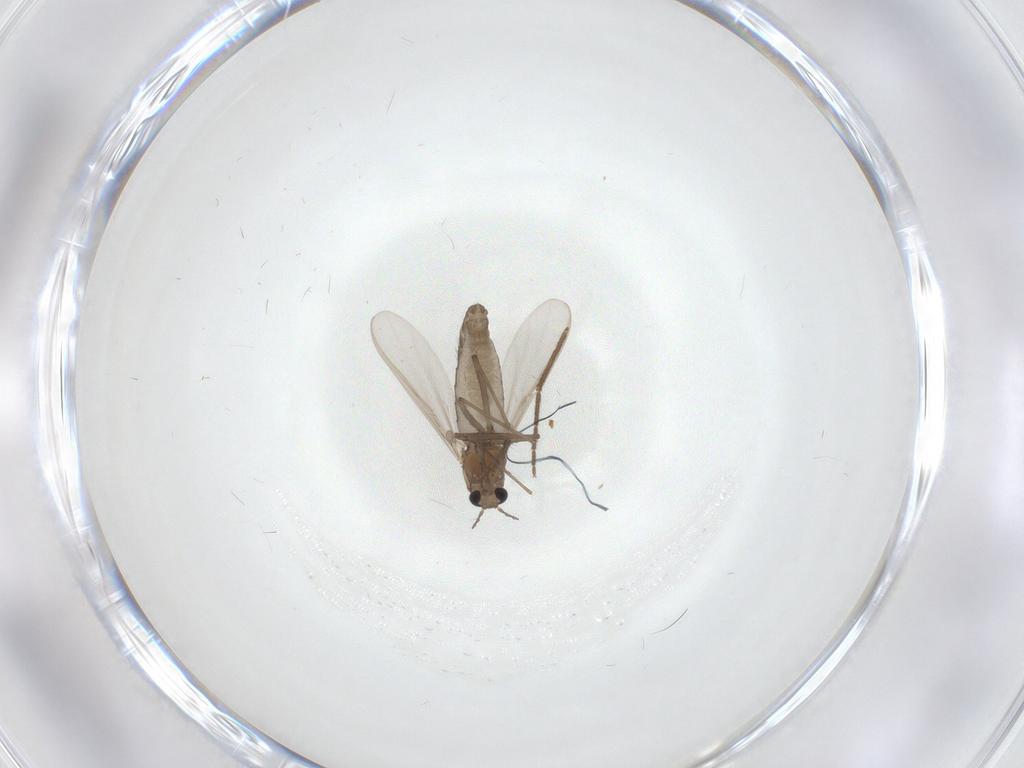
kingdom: Animalia
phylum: Arthropoda
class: Insecta
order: Diptera
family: Chironomidae
